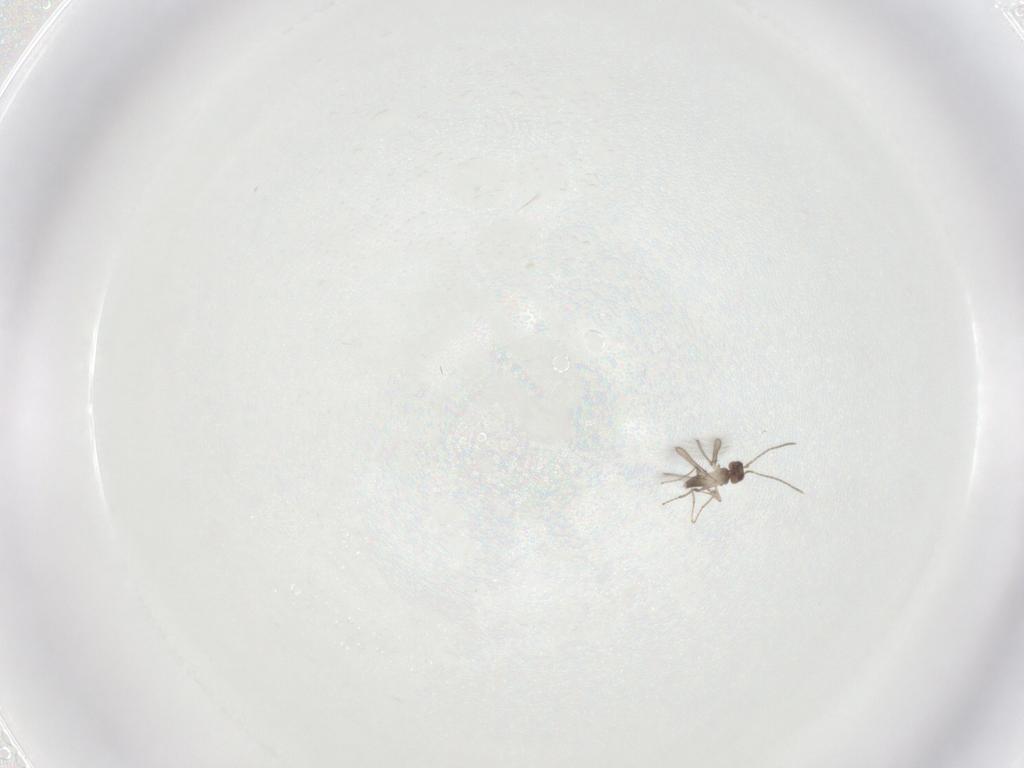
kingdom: Animalia
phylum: Arthropoda
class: Insecta
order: Hymenoptera
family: Mymaridae
